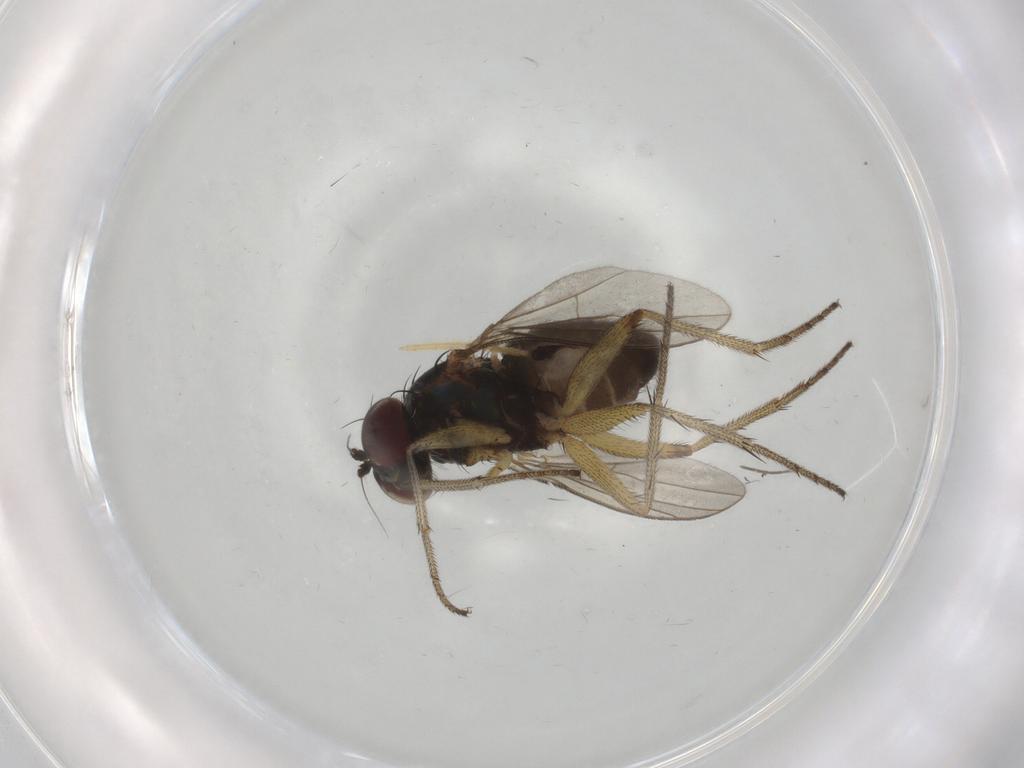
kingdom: Animalia
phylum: Arthropoda
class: Insecta
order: Diptera
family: Chironomidae
